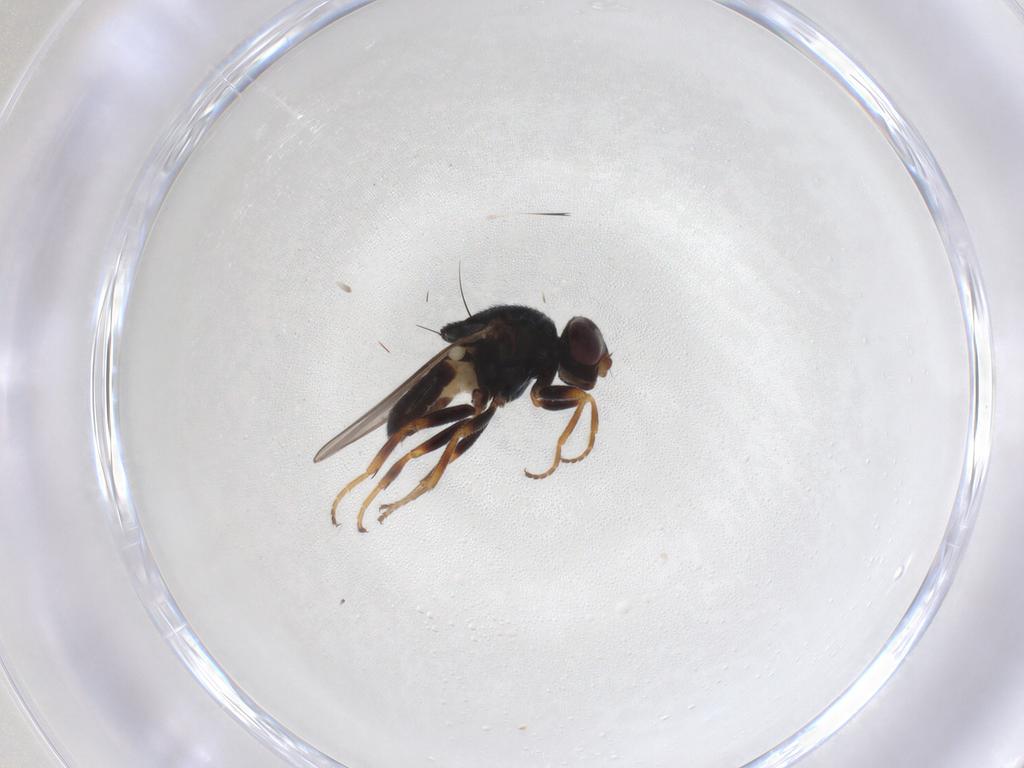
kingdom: Animalia
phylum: Arthropoda
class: Insecta
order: Diptera
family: Chloropidae
